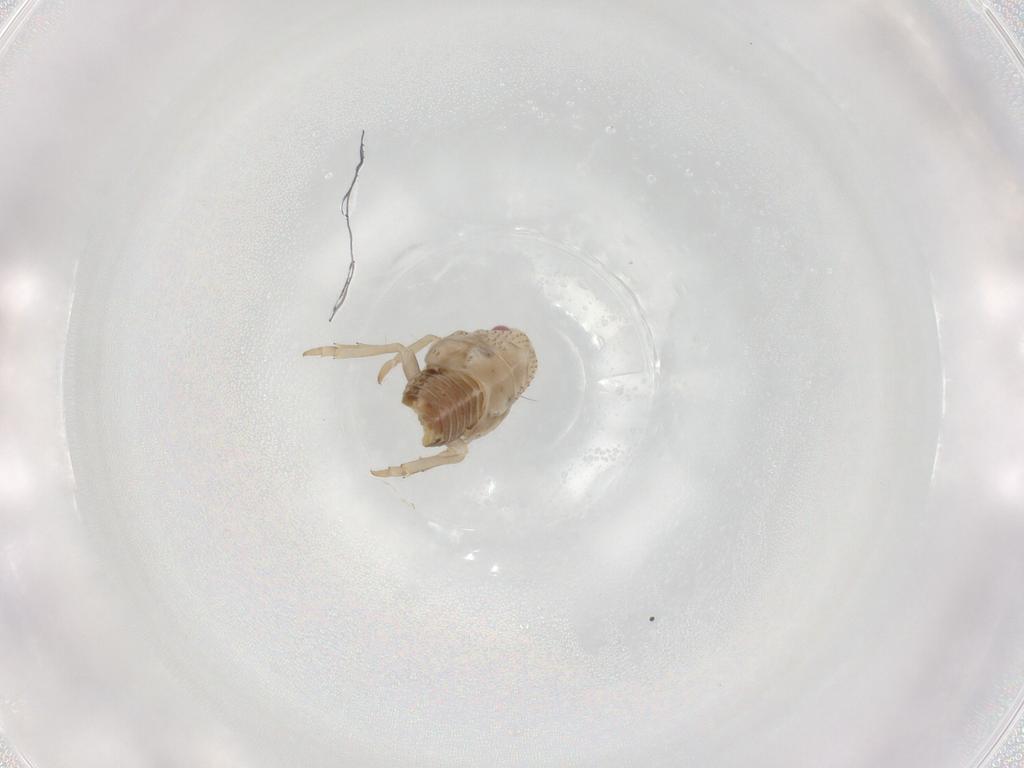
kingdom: Animalia
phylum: Arthropoda
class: Insecta
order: Hemiptera
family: Flatidae
